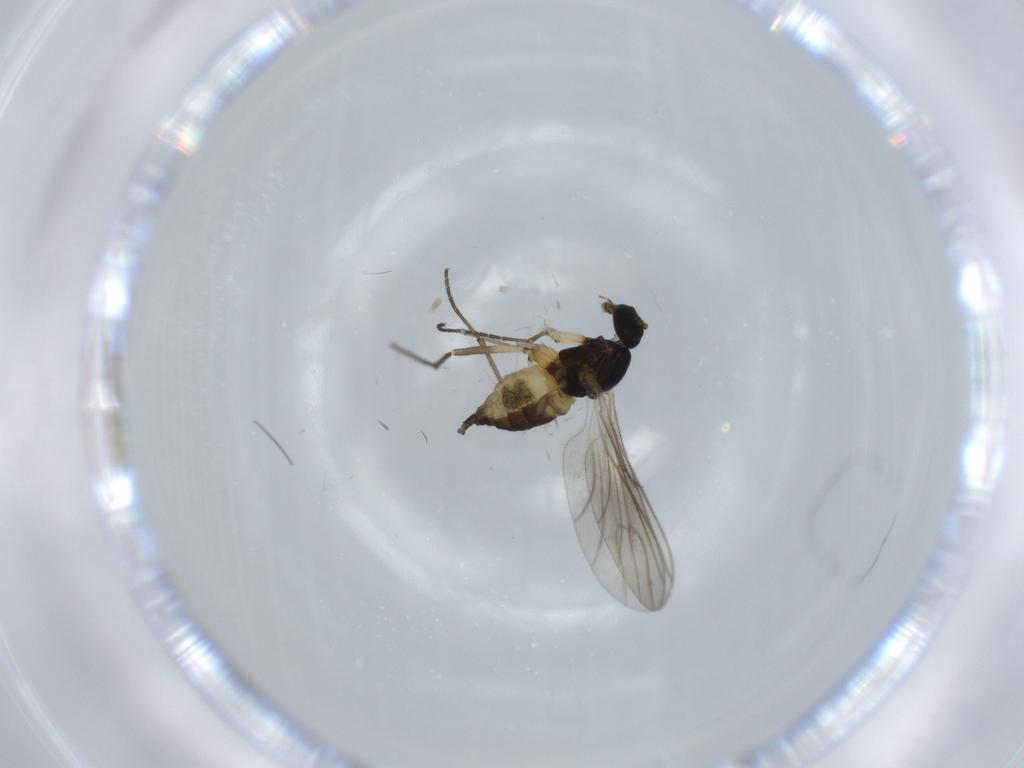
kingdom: Animalia
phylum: Arthropoda
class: Insecta
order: Diptera
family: Sciaridae
